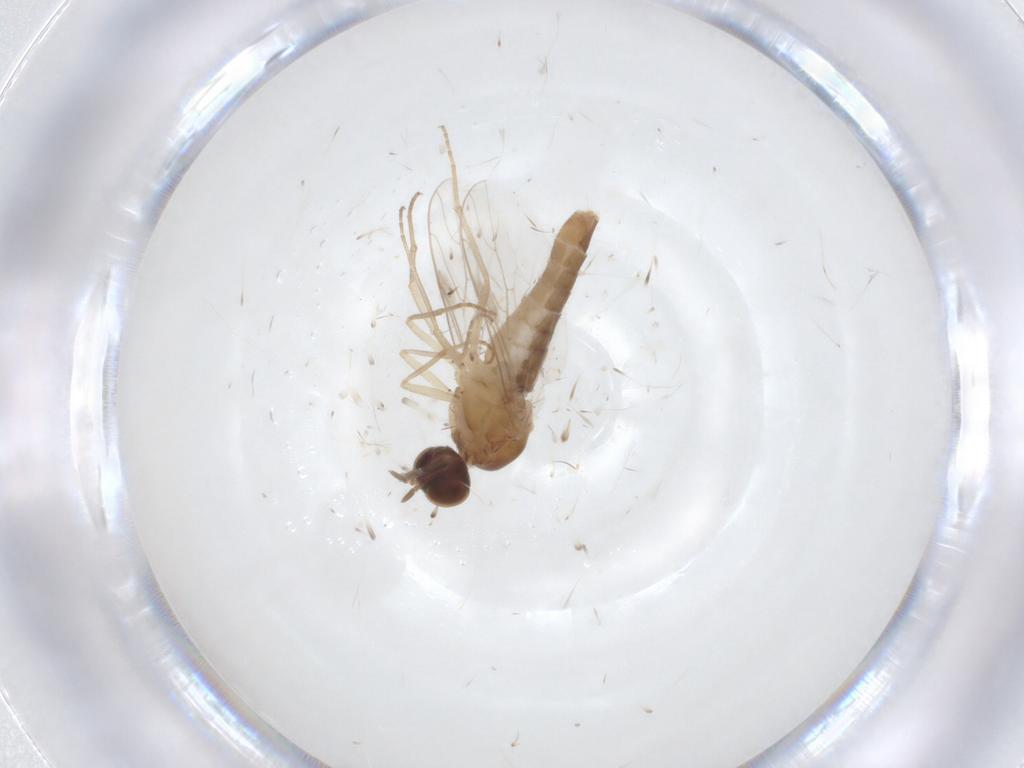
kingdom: Animalia
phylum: Arthropoda
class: Insecta
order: Diptera
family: Scenopinidae
